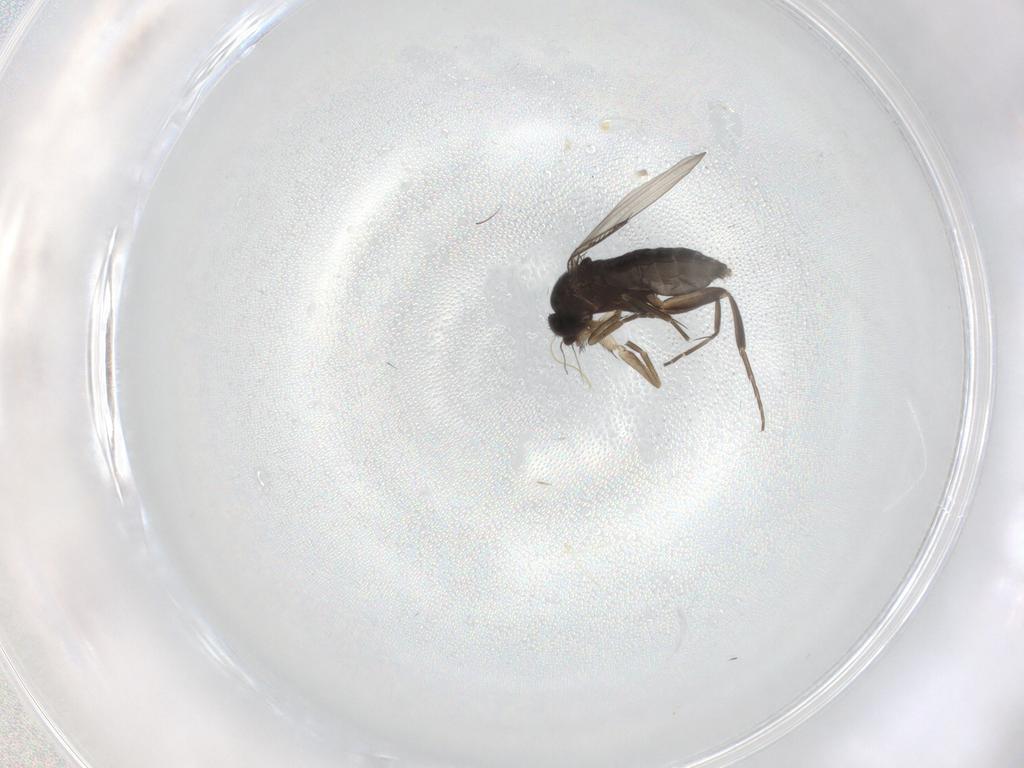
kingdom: Animalia
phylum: Arthropoda
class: Insecta
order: Diptera
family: Phoridae
